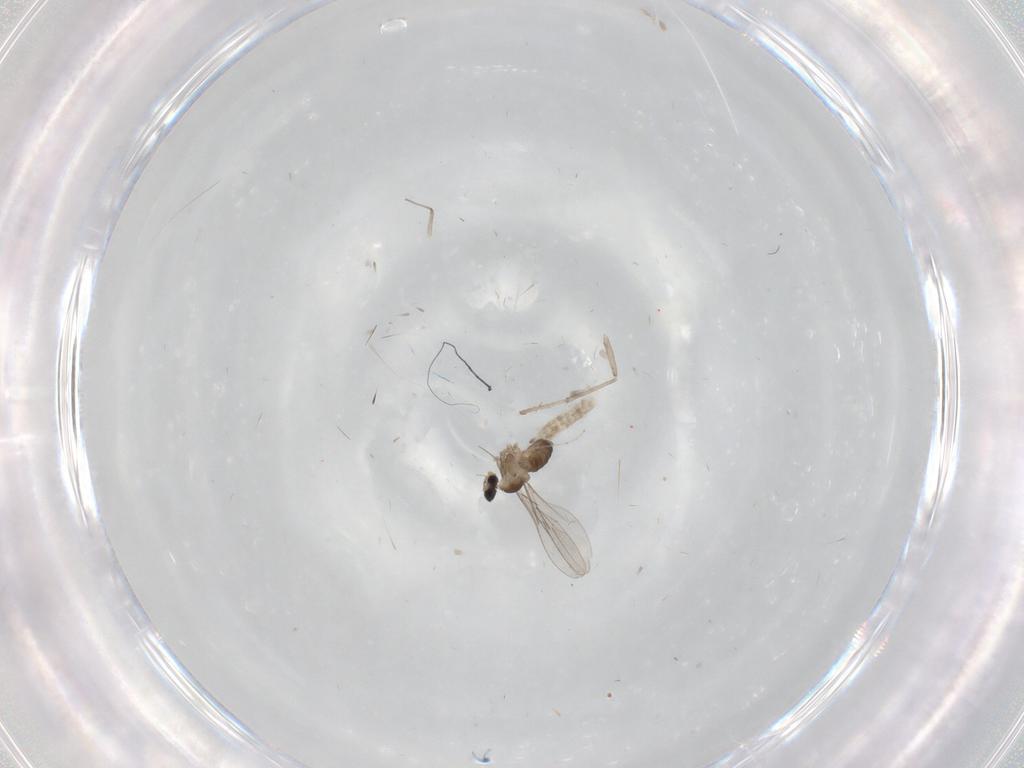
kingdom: Animalia
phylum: Arthropoda
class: Insecta
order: Diptera
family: Cecidomyiidae
